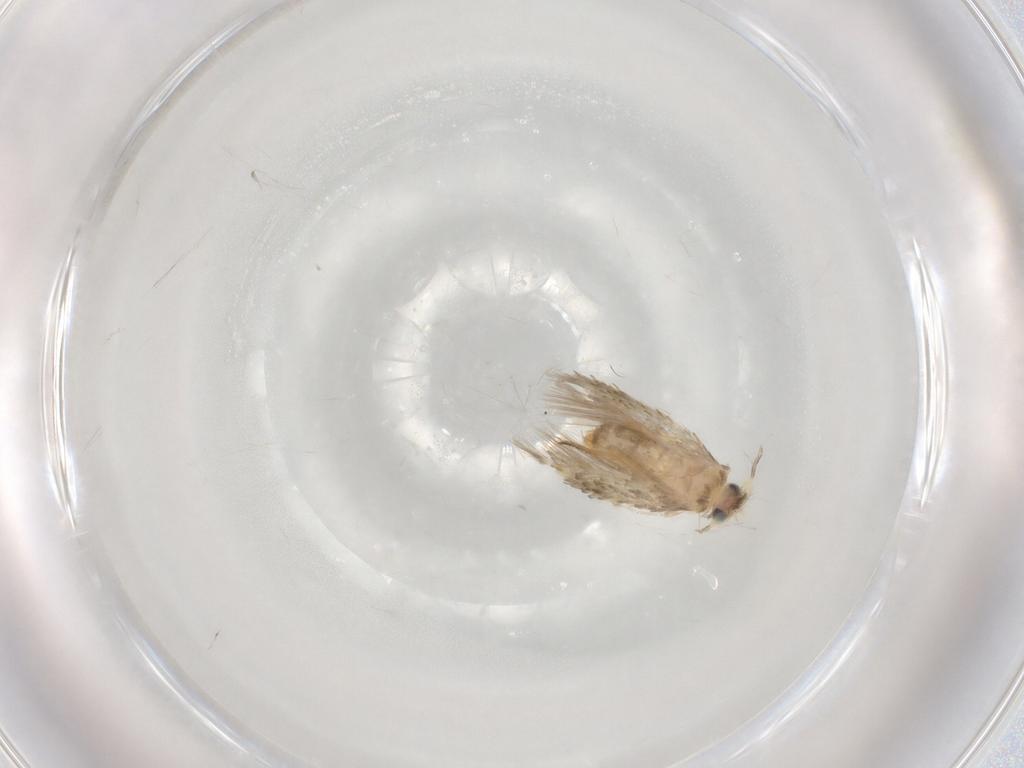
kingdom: Animalia
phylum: Arthropoda
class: Insecta
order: Lepidoptera
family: Nepticulidae
